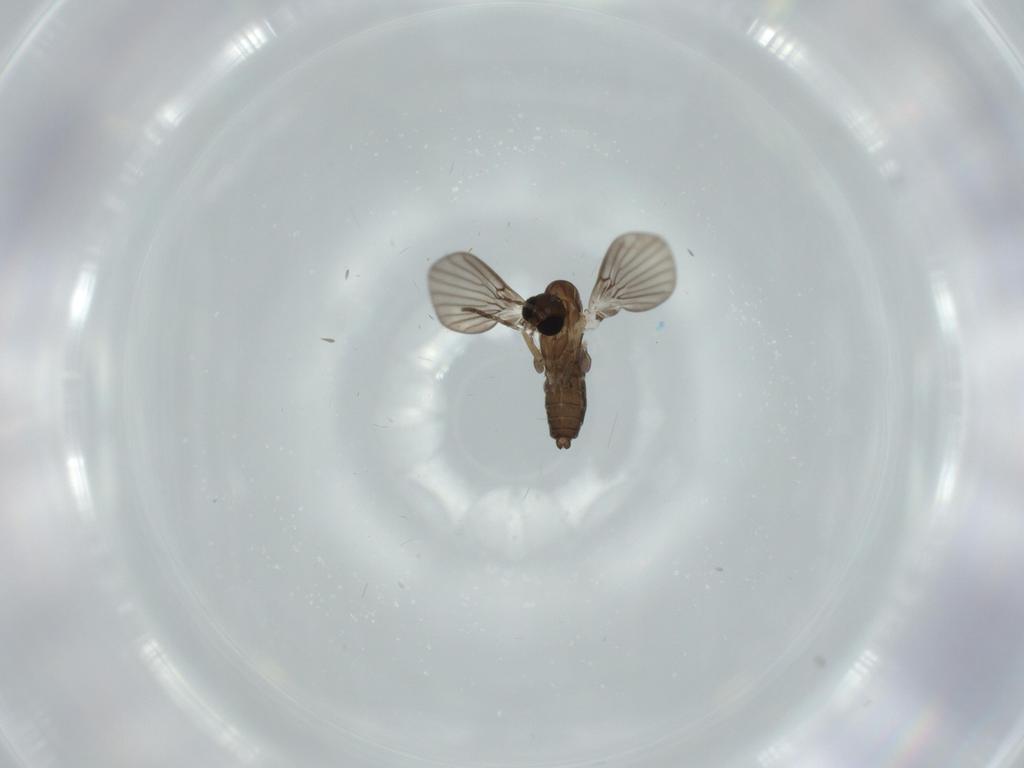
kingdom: Animalia
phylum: Arthropoda
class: Insecta
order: Diptera
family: Psychodidae
